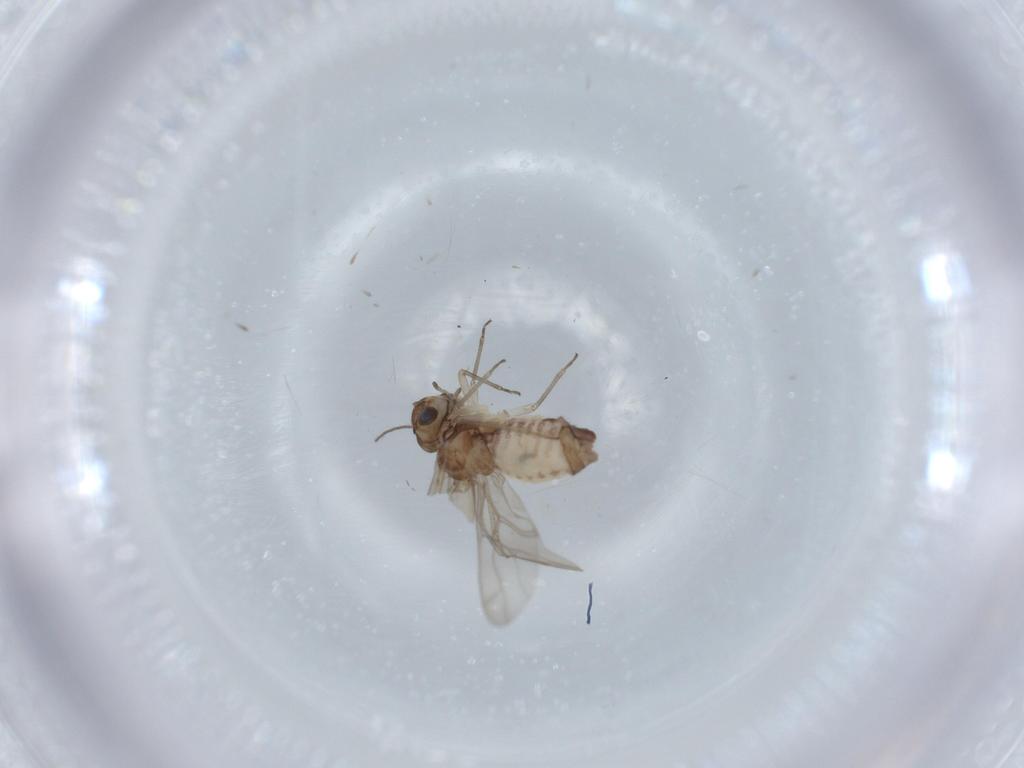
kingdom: Animalia
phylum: Arthropoda
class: Insecta
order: Psocodea
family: Ectopsocidae
